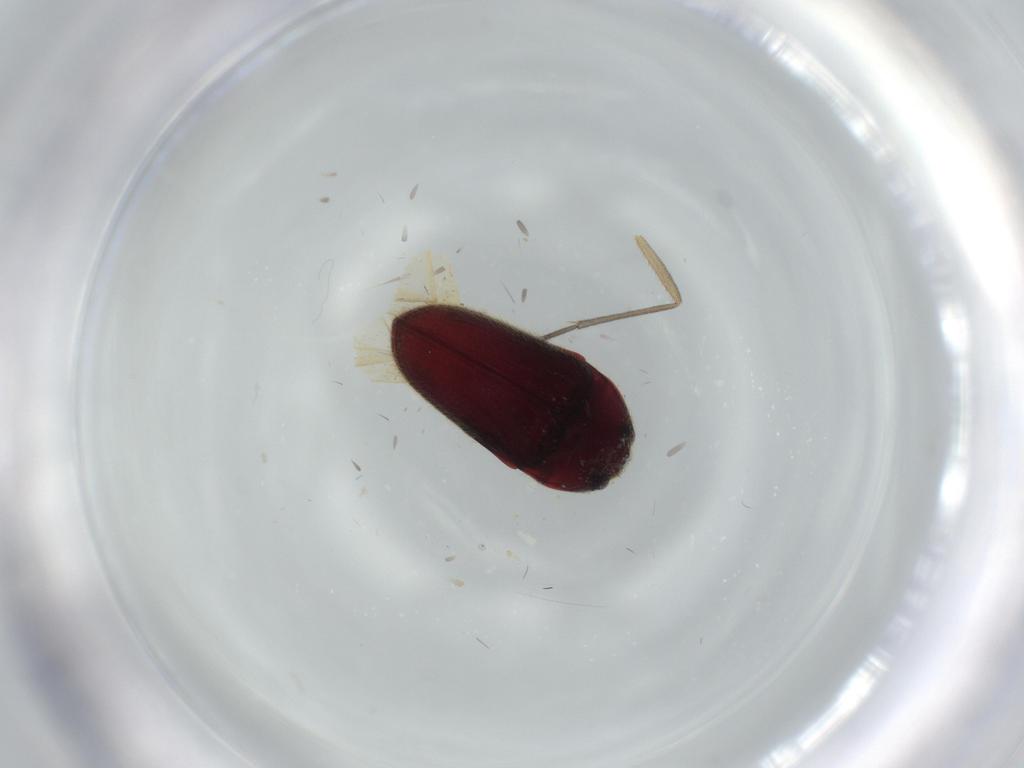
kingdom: Animalia
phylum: Arthropoda
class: Insecta
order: Coleoptera
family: Throscidae
